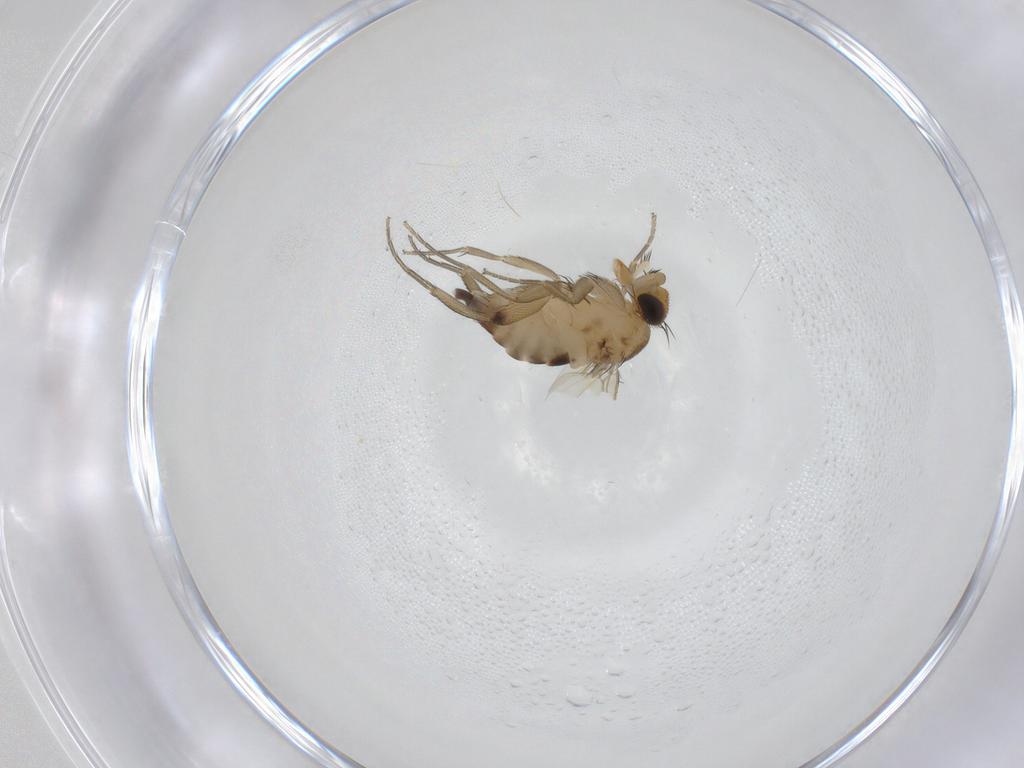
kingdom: Animalia
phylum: Arthropoda
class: Insecta
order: Diptera
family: Phoridae
